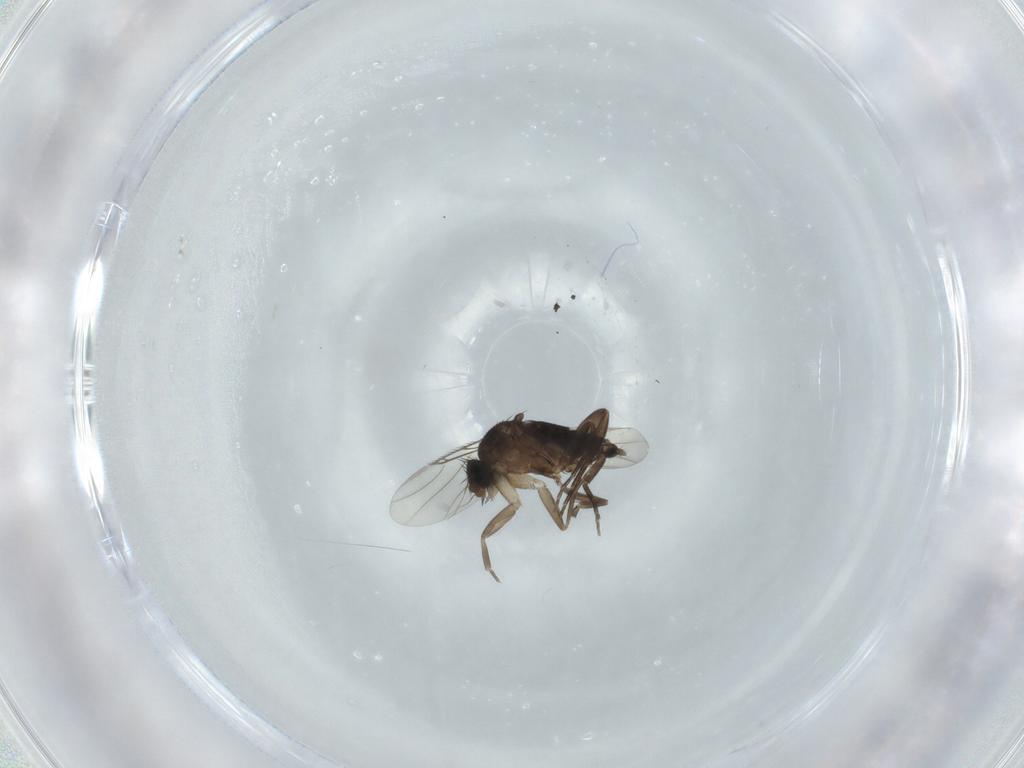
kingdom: Animalia
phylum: Arthropoda
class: Insecta
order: Diptera
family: Phoridae
